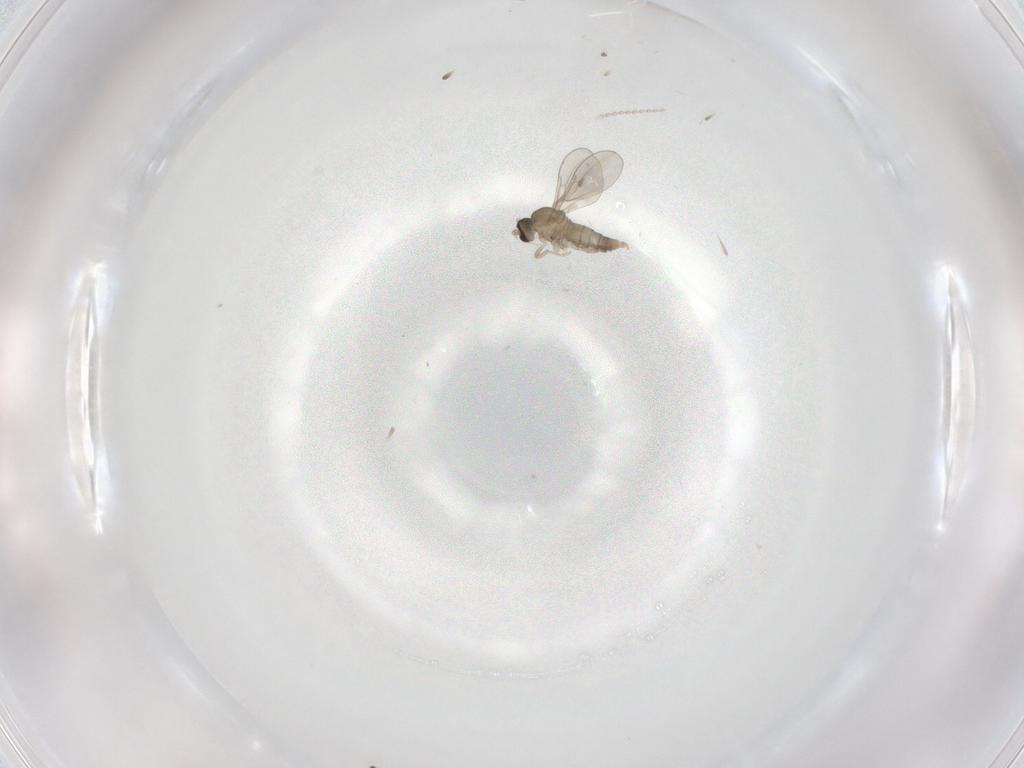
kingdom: Animalia
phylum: Arthropoda
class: Insecta
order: Diptera
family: Cecidomyiidae
